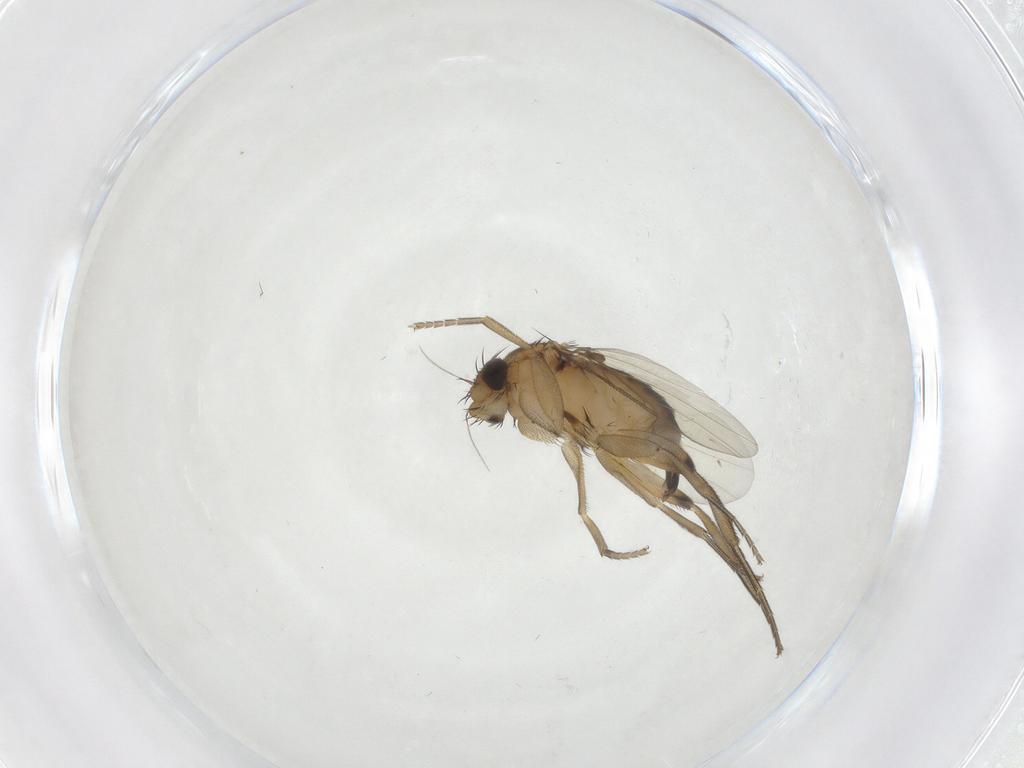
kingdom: Animalia
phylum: Arthropoda
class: Insecta
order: Diptera
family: Phoridae
